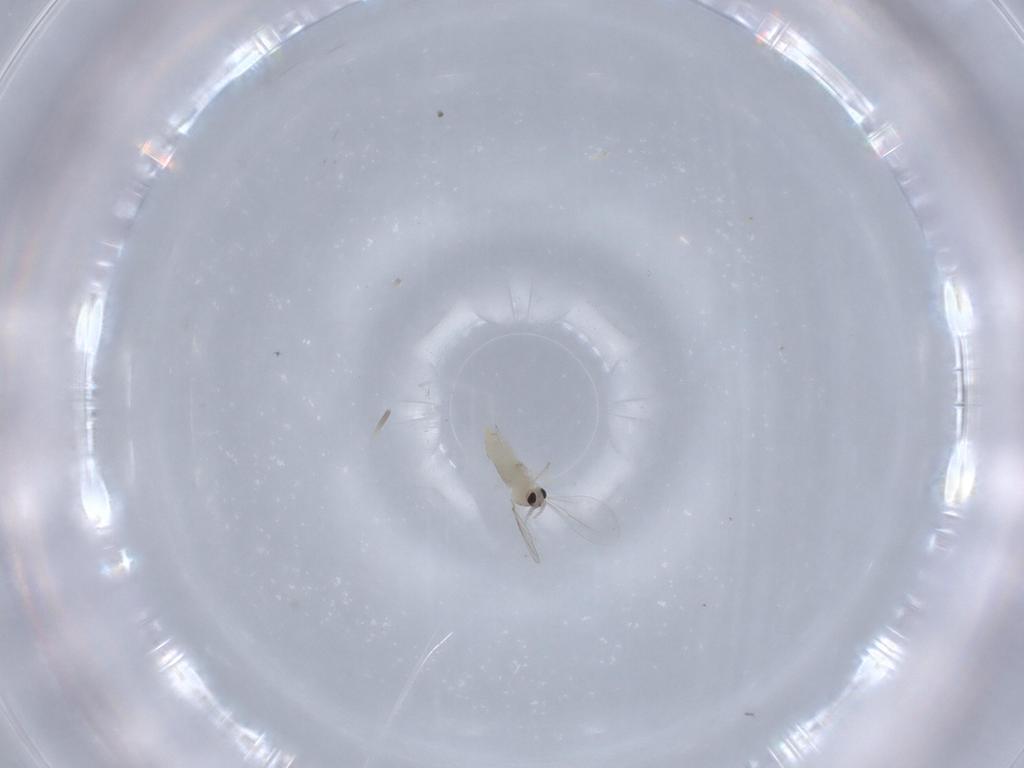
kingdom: Animalia
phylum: Arthropoda
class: Insecta
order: Diptera
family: Cecidomyiidae
